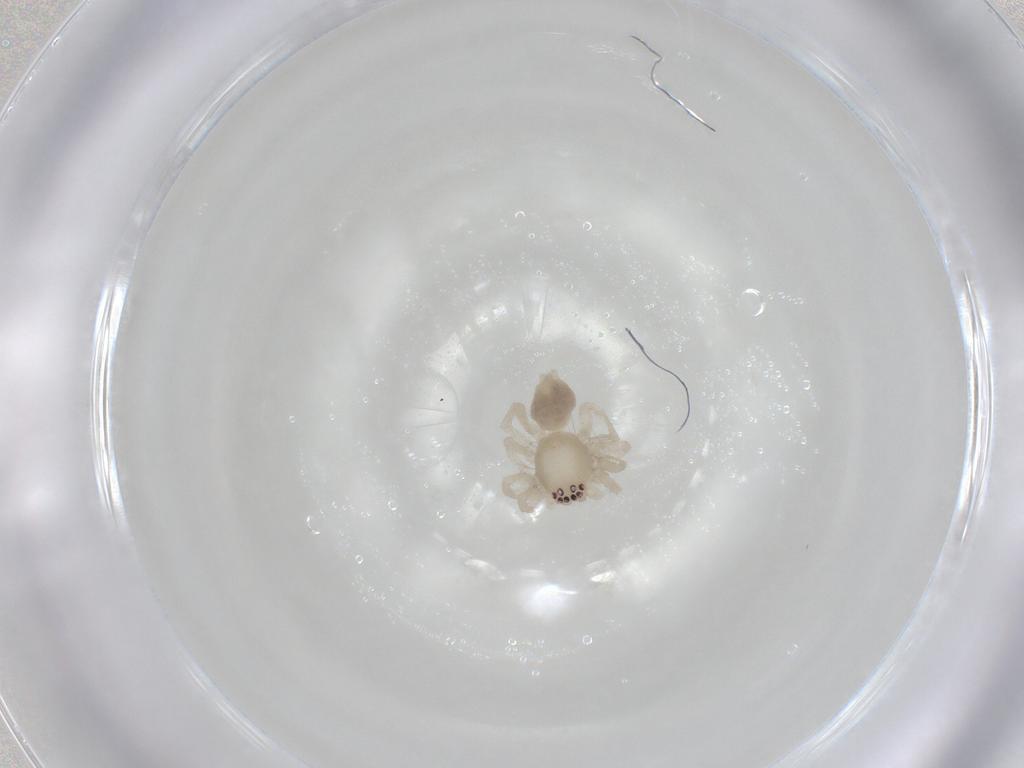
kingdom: Animalia
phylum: Arthropoda
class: Arachnida
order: Araneae
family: Clubionidae
